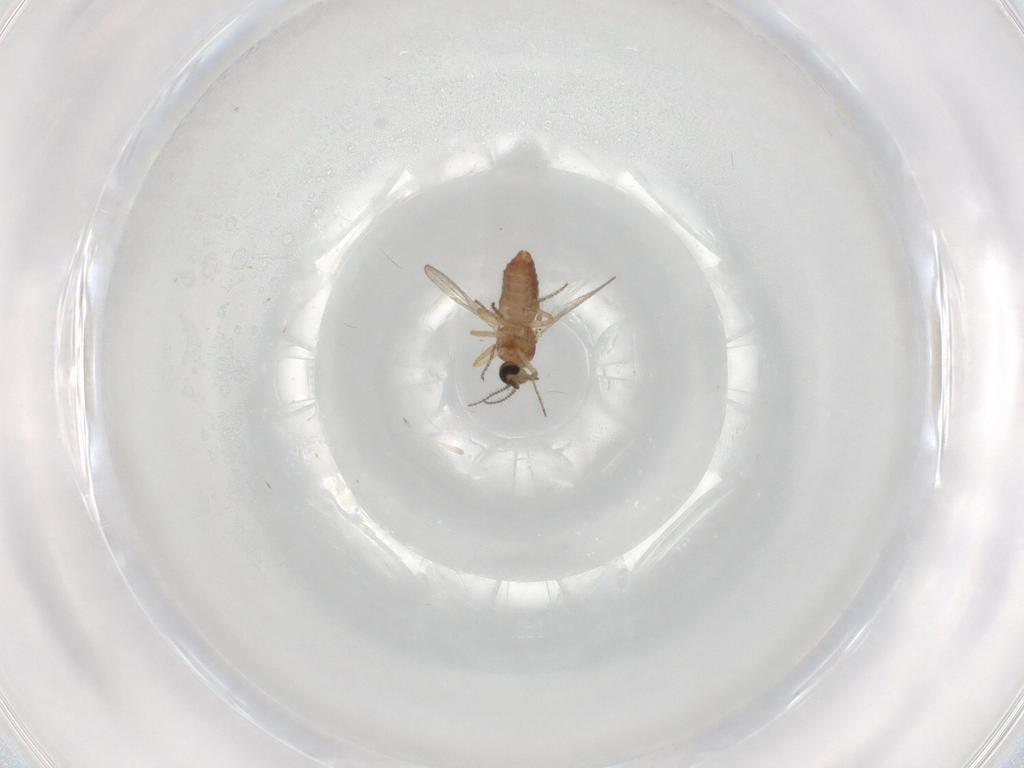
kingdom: Animalia
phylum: Arthropoda
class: Insecta
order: Diptera
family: Ceratopogonidae
